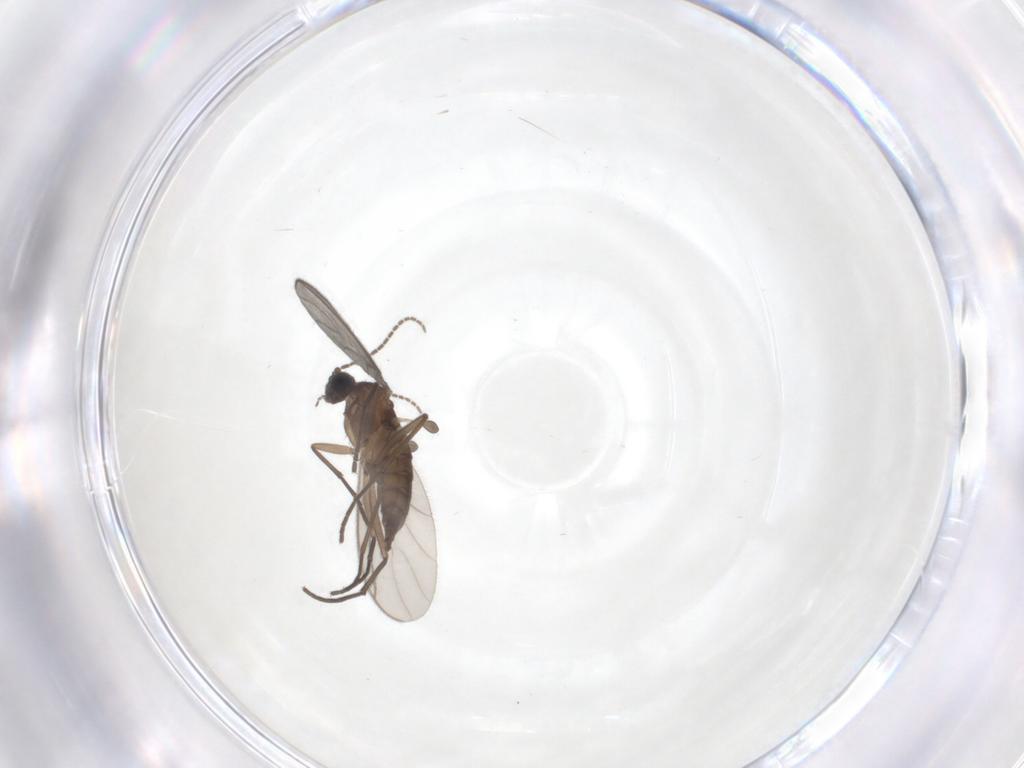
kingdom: Animalia
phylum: Arthropoda
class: Insecta
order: Diptera
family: Sciaridae
